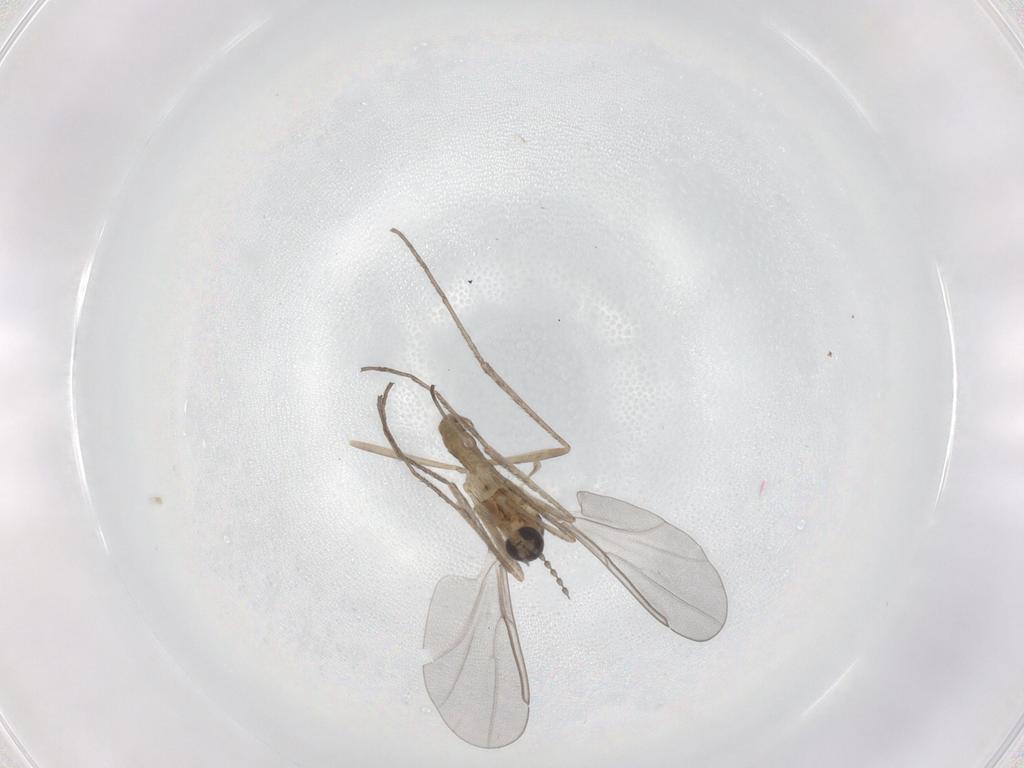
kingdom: Animalia
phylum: Arthropoda
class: Insecta
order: Diptera
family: Cecidomyiidae
